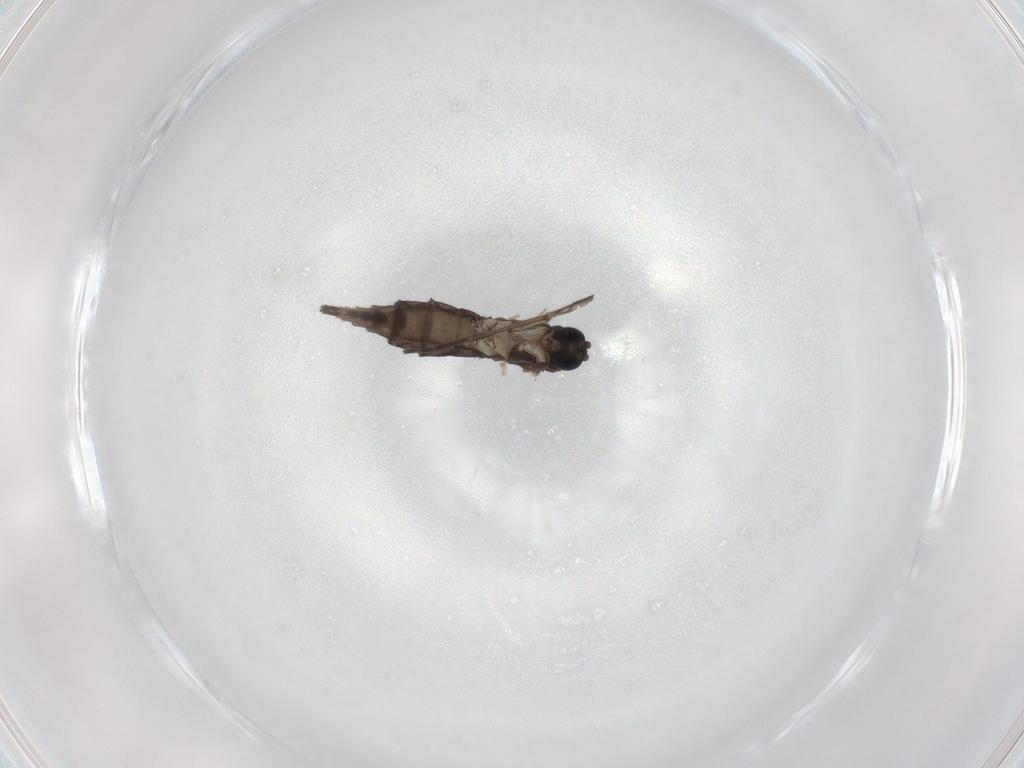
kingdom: Animalia
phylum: Arthropoda
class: Insecta
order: Diptera
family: Sciaridae
